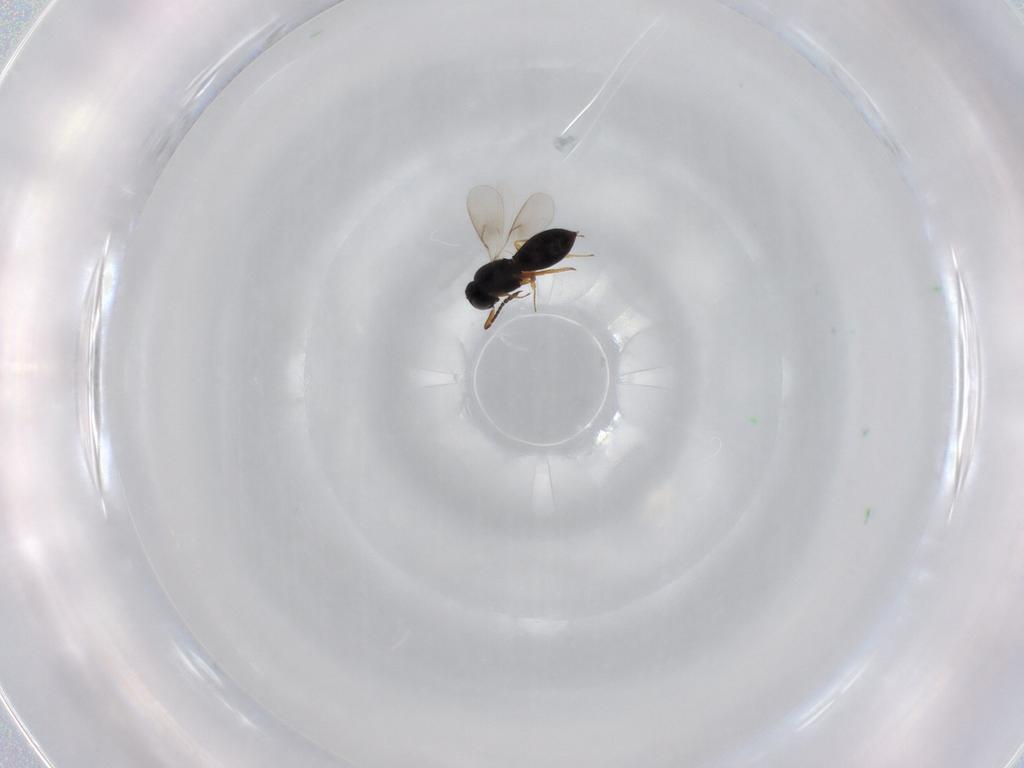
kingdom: Animalia
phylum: Arthropoda
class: Insecta
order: Hymenoptera
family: Scelionidae
